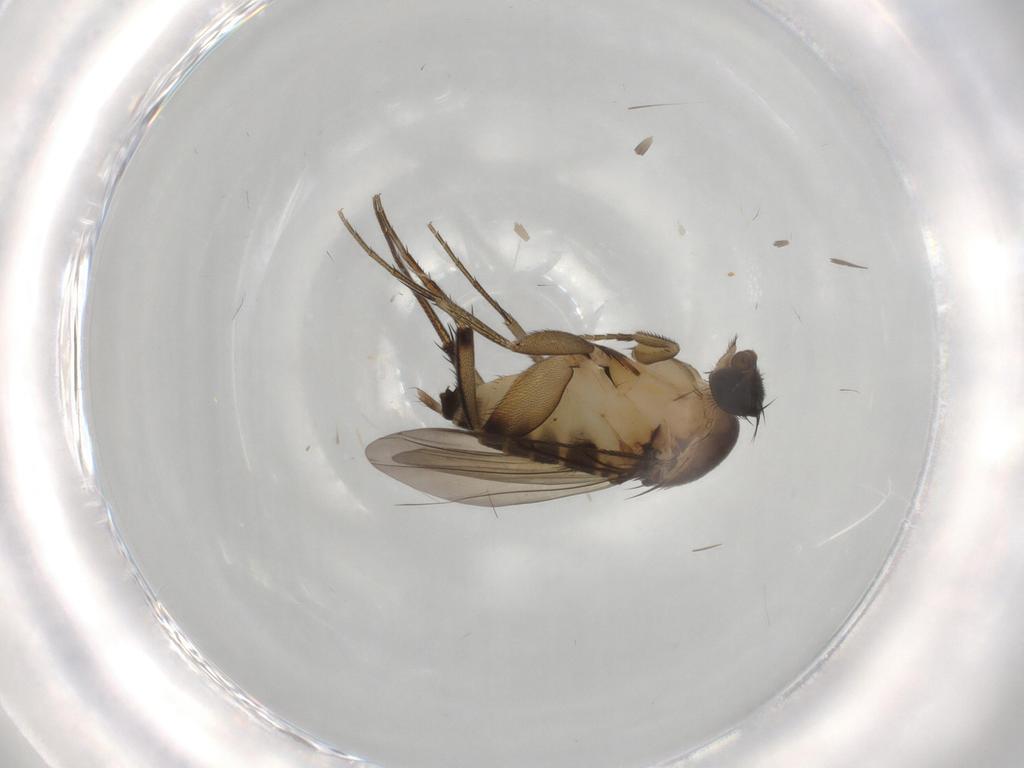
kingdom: Animalia
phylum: Arthropoda
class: Insecta
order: Diptera
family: Phoridae
